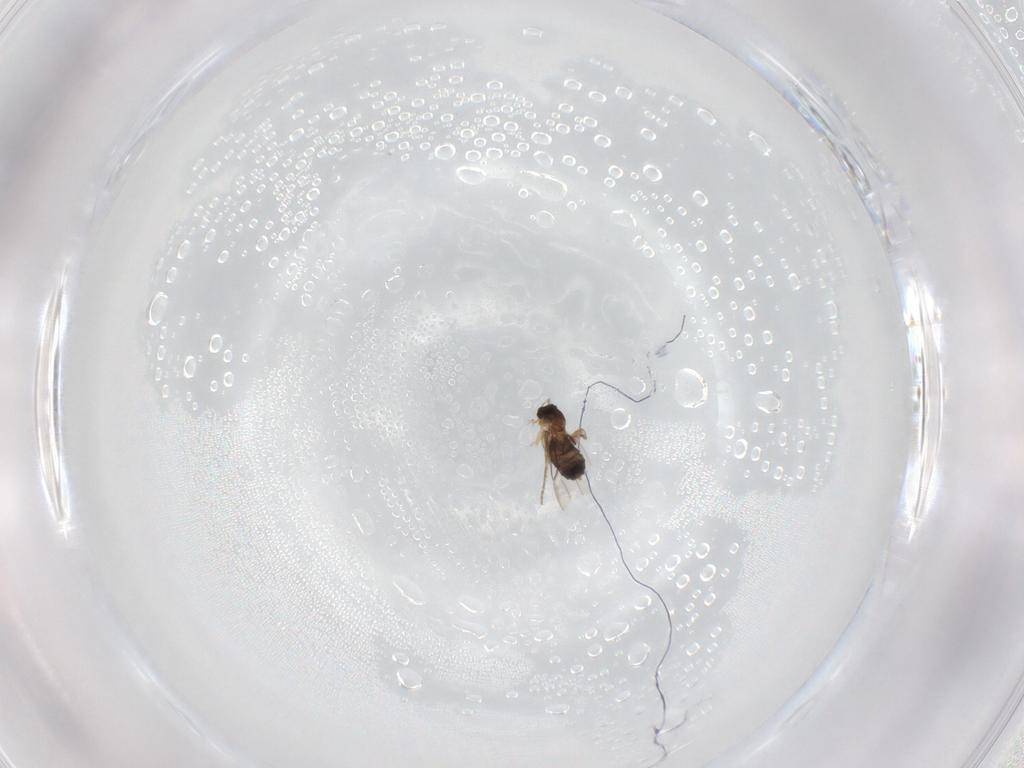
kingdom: Animalia
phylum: Arthropoda
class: Insecta
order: Diptera
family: Phoridae
